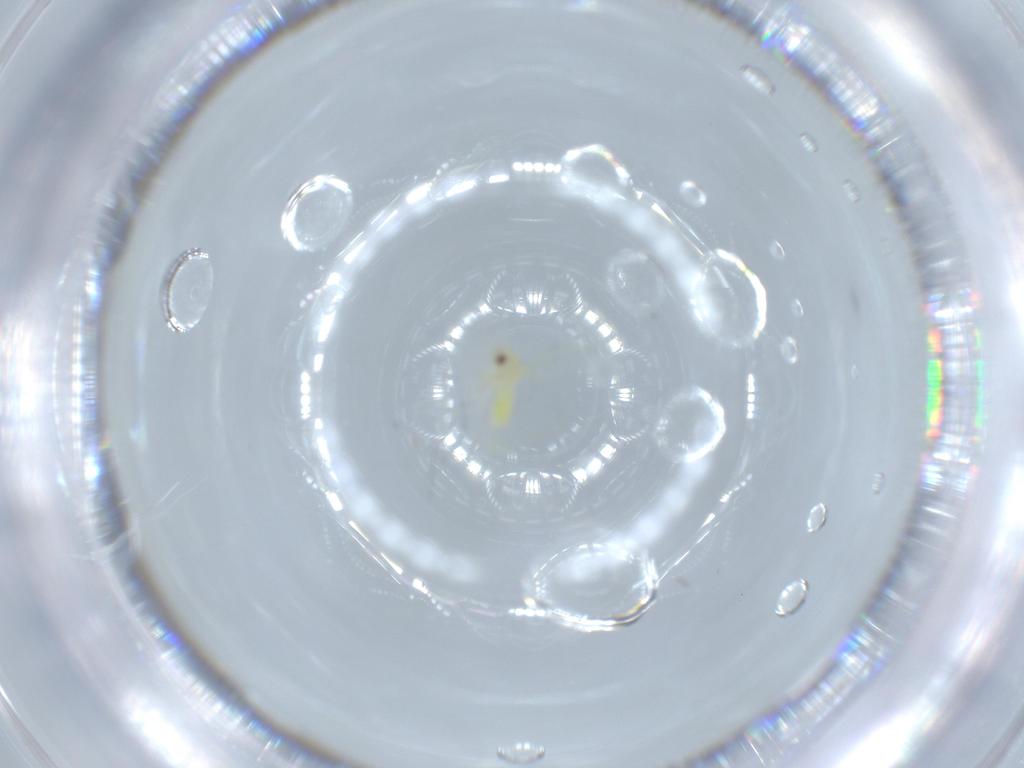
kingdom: Animalia
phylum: Arthropoda
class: Insecta
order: Hemiptera
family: Aleyrodidae
